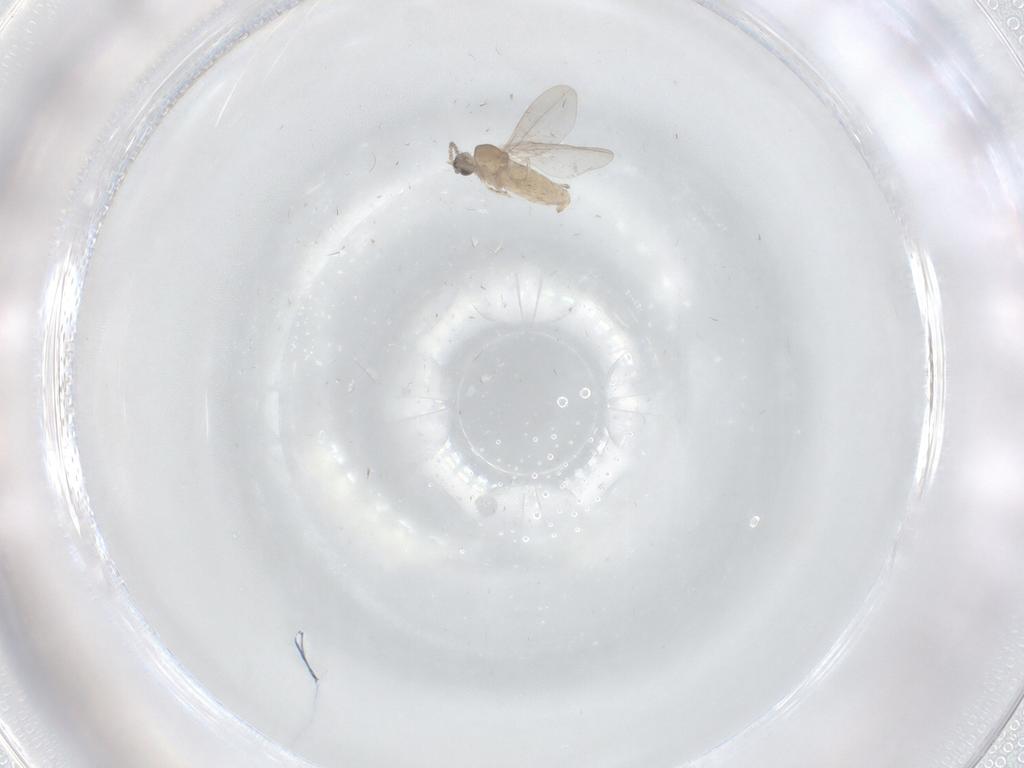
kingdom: Animalia
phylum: Arthropoda
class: Insecta
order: Diptera
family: Cecidomyiidae
